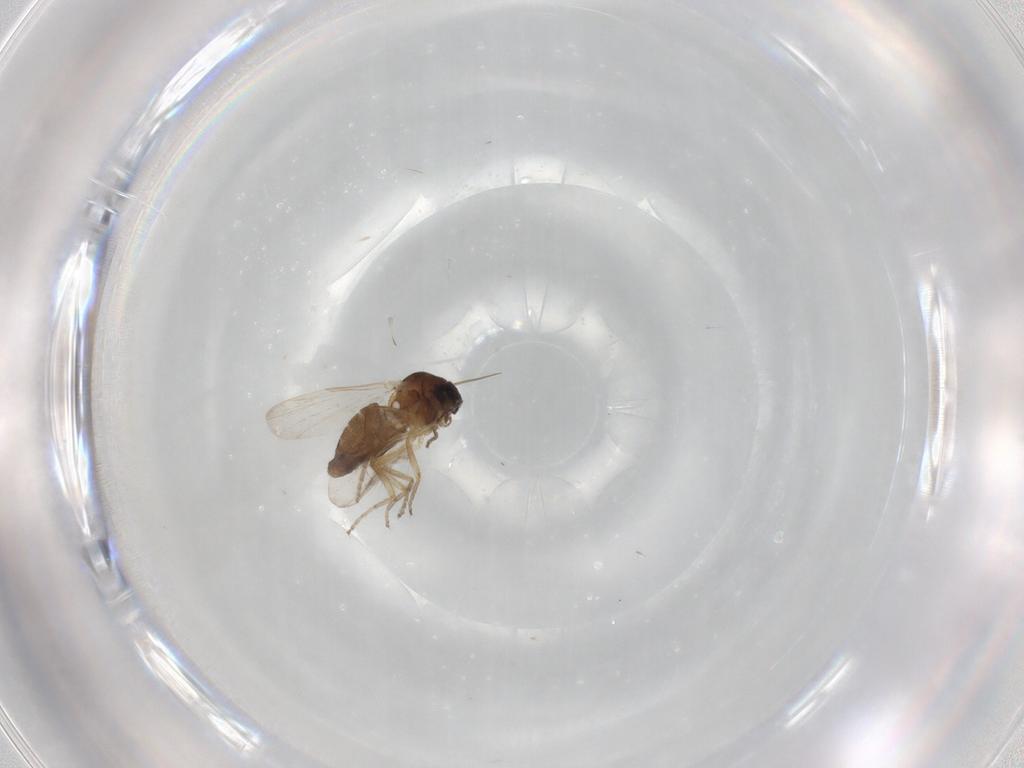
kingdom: Animalia
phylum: Arthropoda
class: Insecta
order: Diptera
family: Ceratopogonidae
